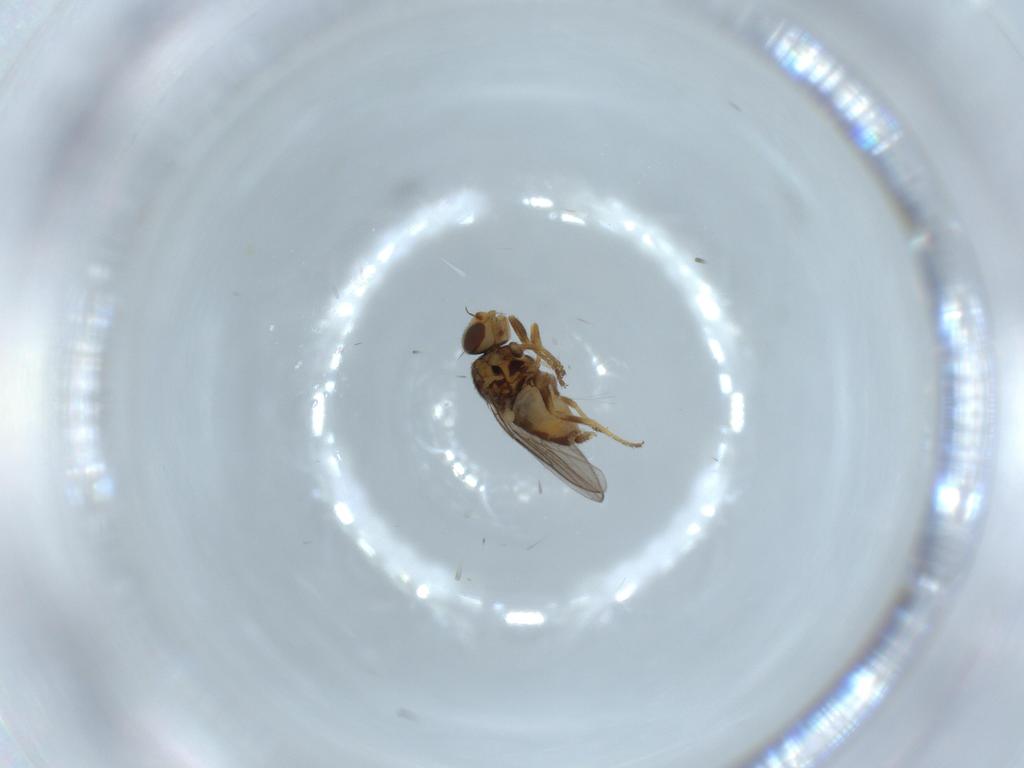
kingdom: Animalia
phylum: Arthropoda
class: Insecta
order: Diptera
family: Chloropidae
